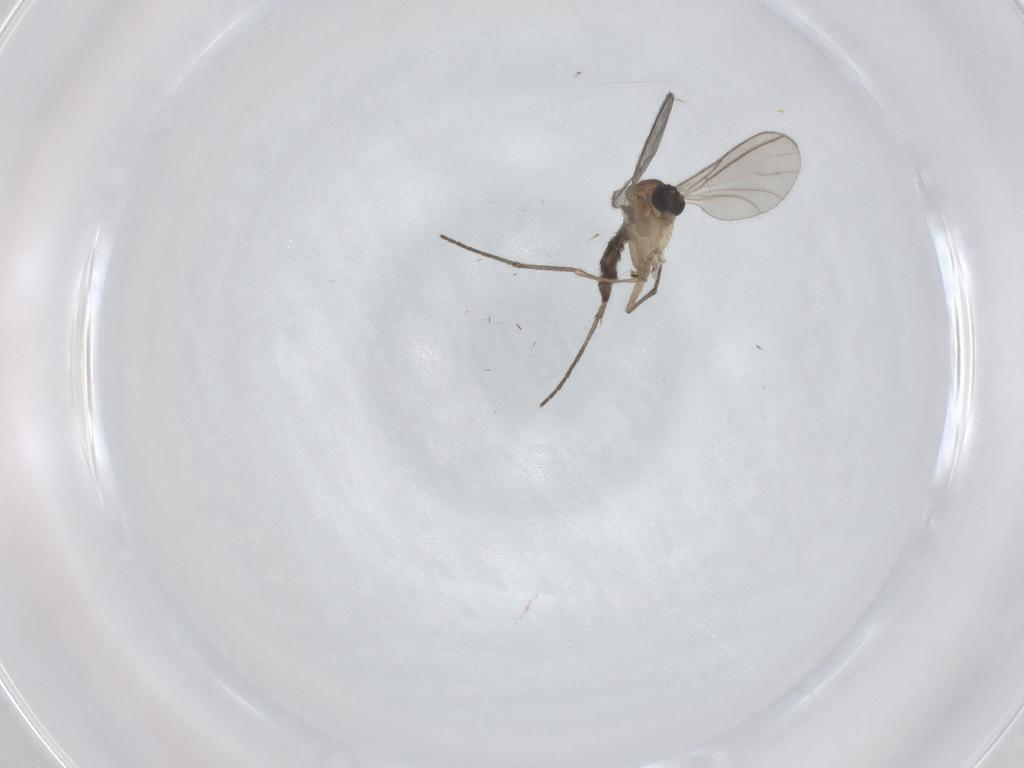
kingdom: Animalia
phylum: Arthropoda
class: Insecta
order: Diptera
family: Sciaridae
